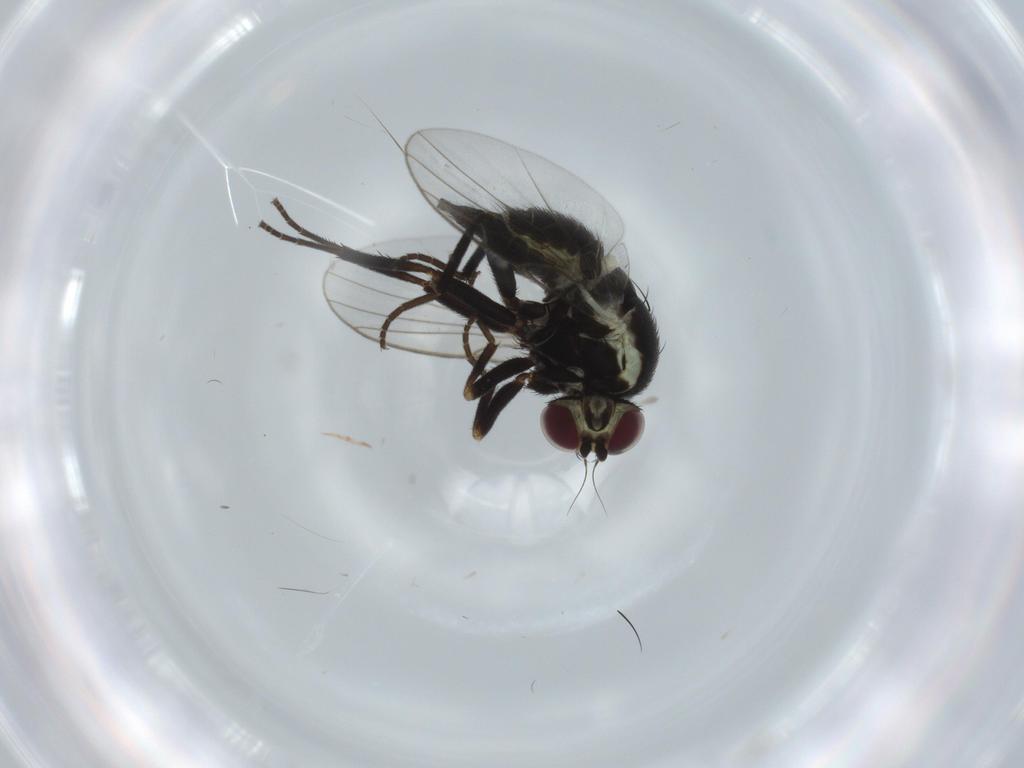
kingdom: Animalia
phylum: Arthropoda
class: Insecta
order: Diptera
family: Agromyzidae
